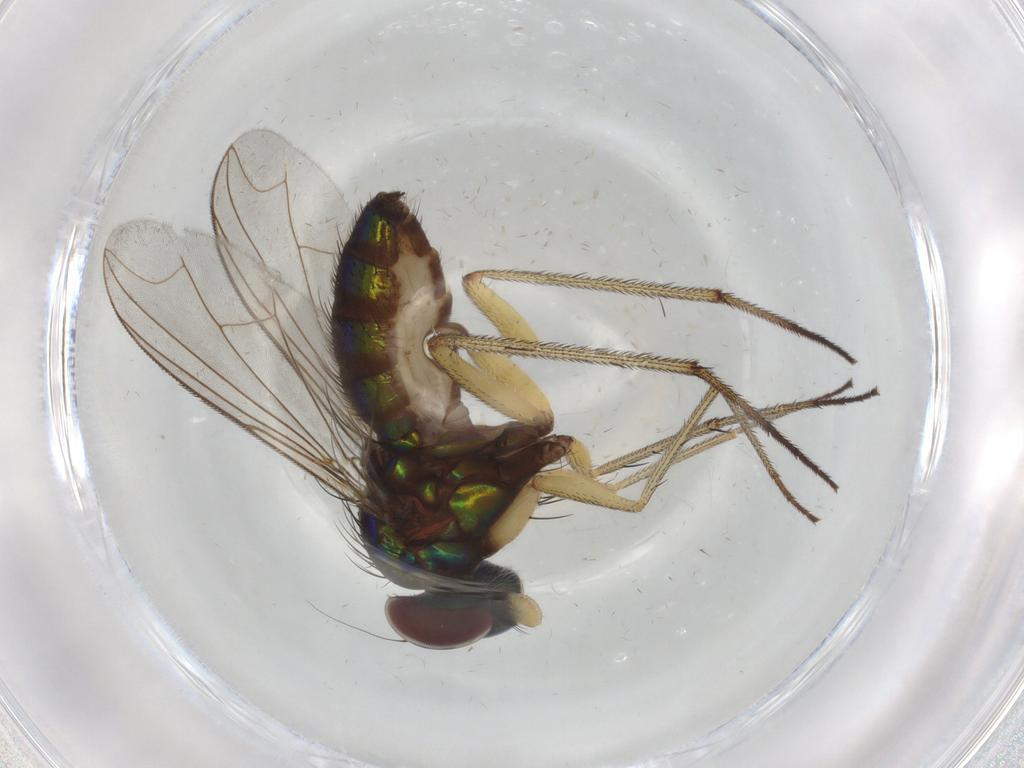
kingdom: Animalia
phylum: Arthropoda
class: Insecta
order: Diptera
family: Dolichopodidae
